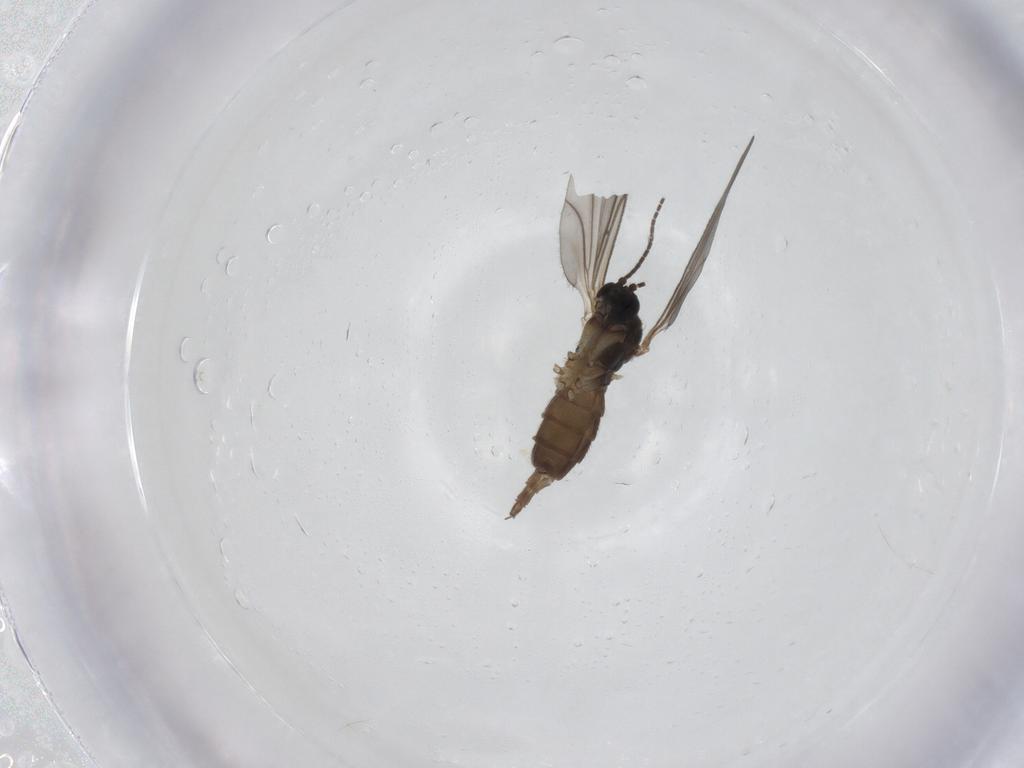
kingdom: Animalia
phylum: Arthropoda
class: Insecta
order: Diptera
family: Sciaridae
